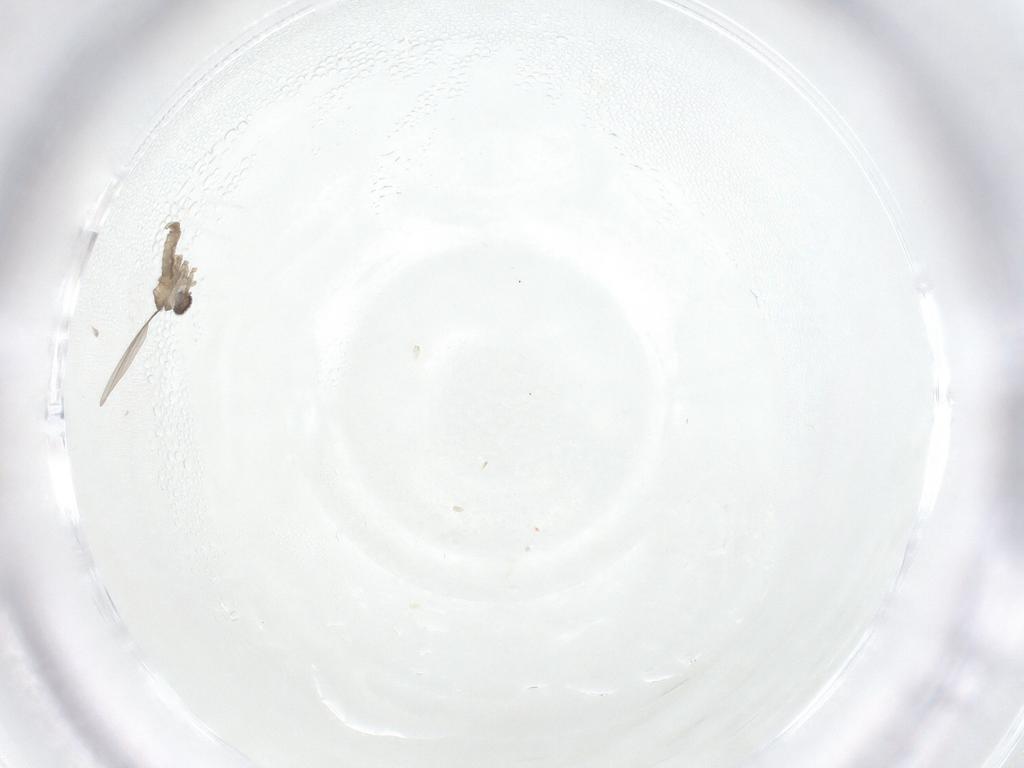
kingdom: Animalia
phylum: Arthropoda
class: Insecta
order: Diptera
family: Cecidomyiidae
